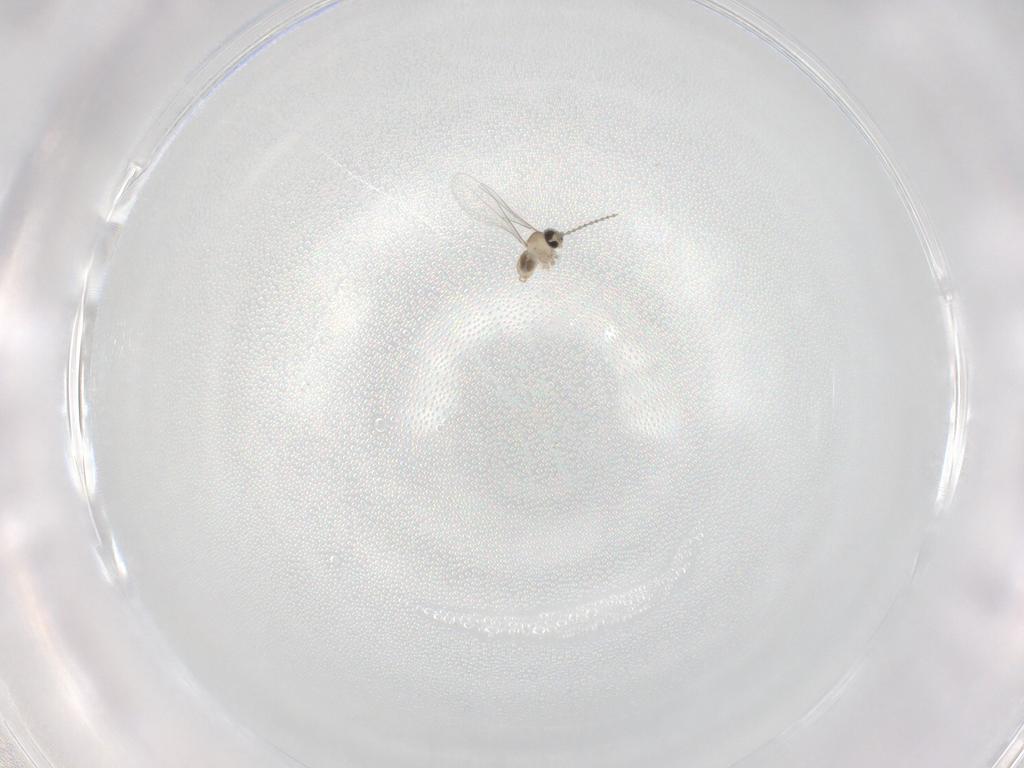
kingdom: Animalia
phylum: Arthropoda
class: Insecta
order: Diptera
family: Cecidomyiidae
